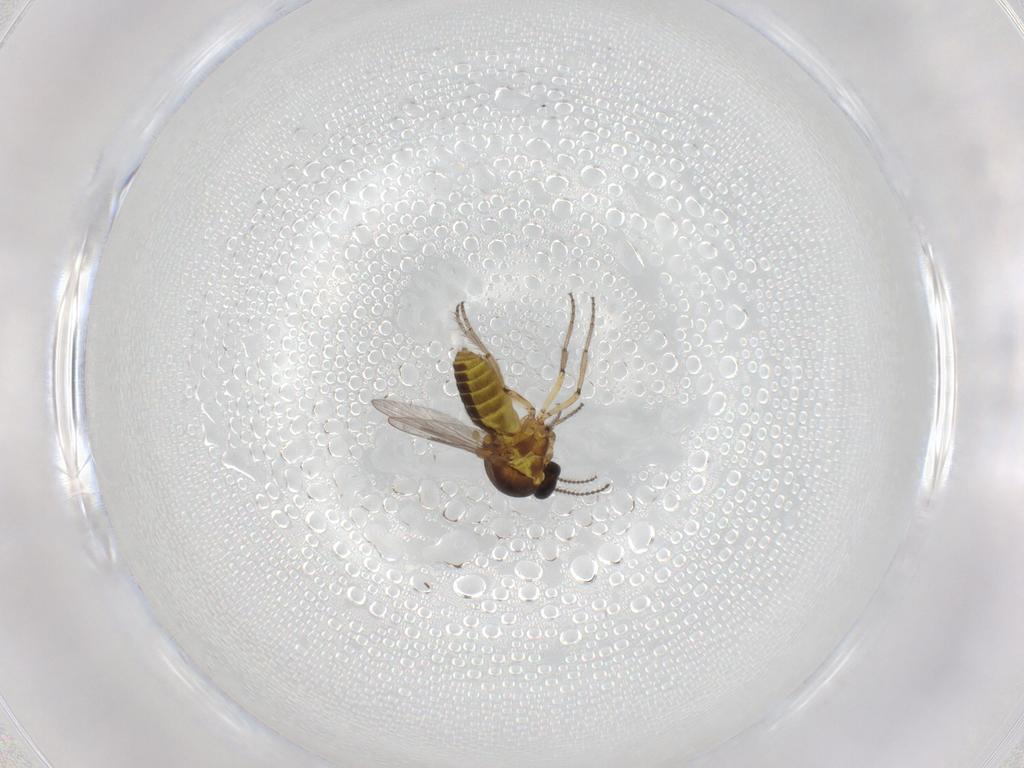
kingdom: Animalia
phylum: Arthropoda
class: Insecta
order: Diptera
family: Ceratopogonidae
